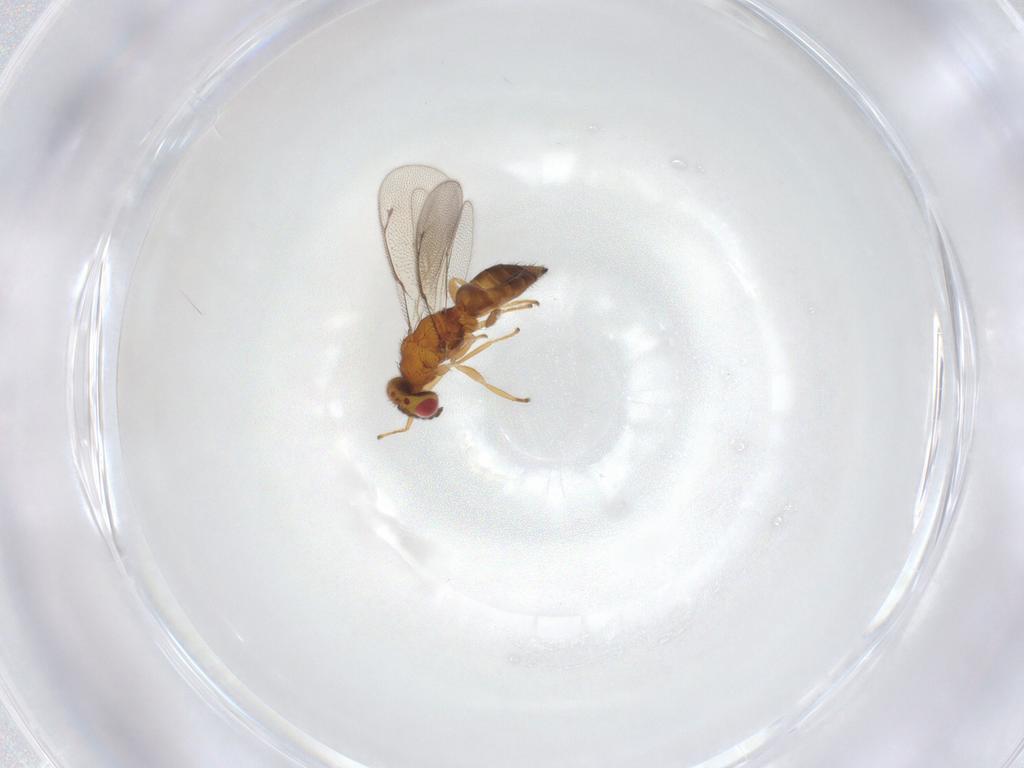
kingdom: Animalia
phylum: Arthropoda
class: Insecta
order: Hymenoptera
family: Eulophidae
